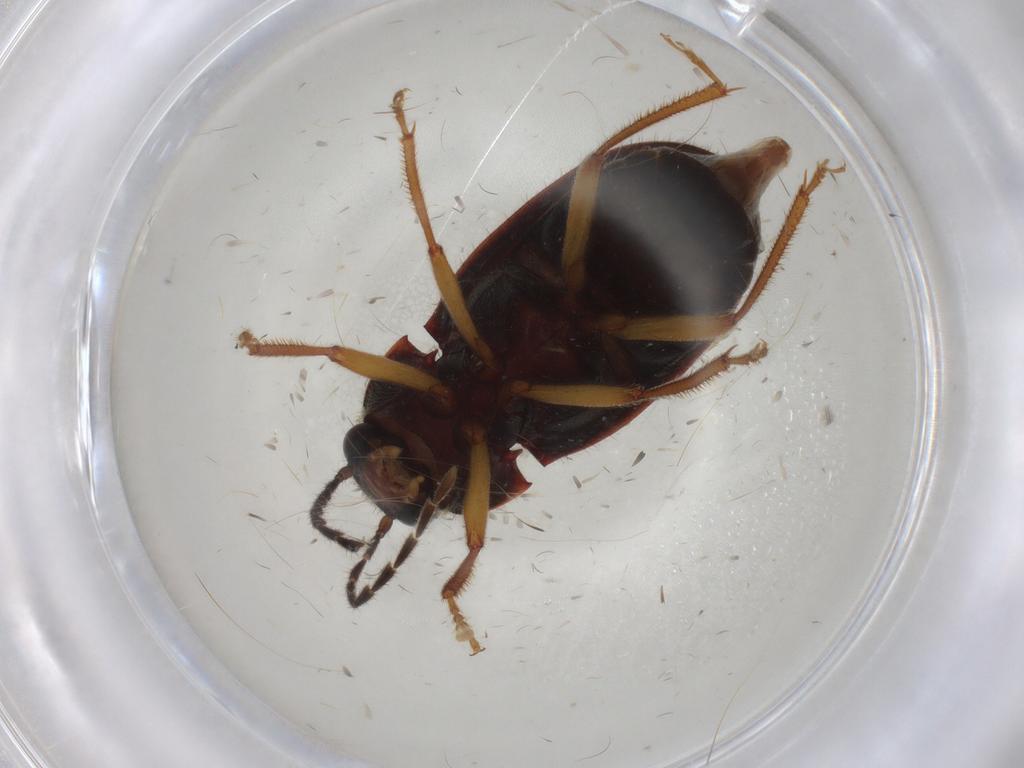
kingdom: Animalia
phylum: Arthropoda
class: Insecta
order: Coleoptera
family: Ptilodactylidae
